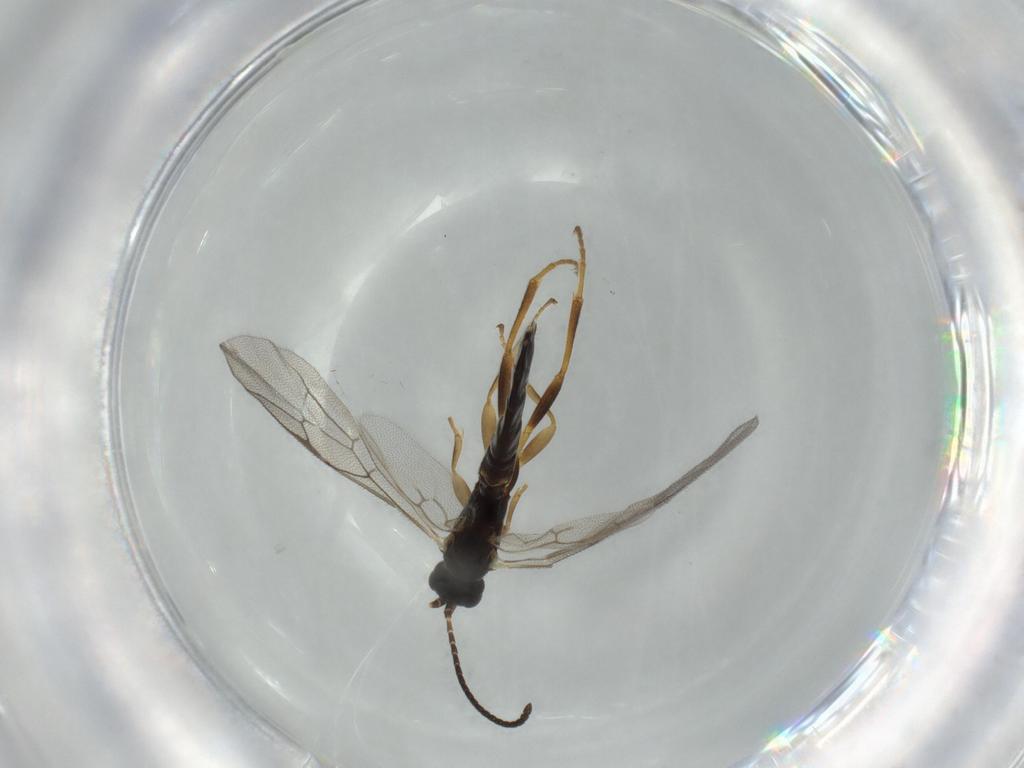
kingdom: Animalia
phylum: Arthropoda
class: Insecta
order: Hymenoptera
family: Ichneumonidae
